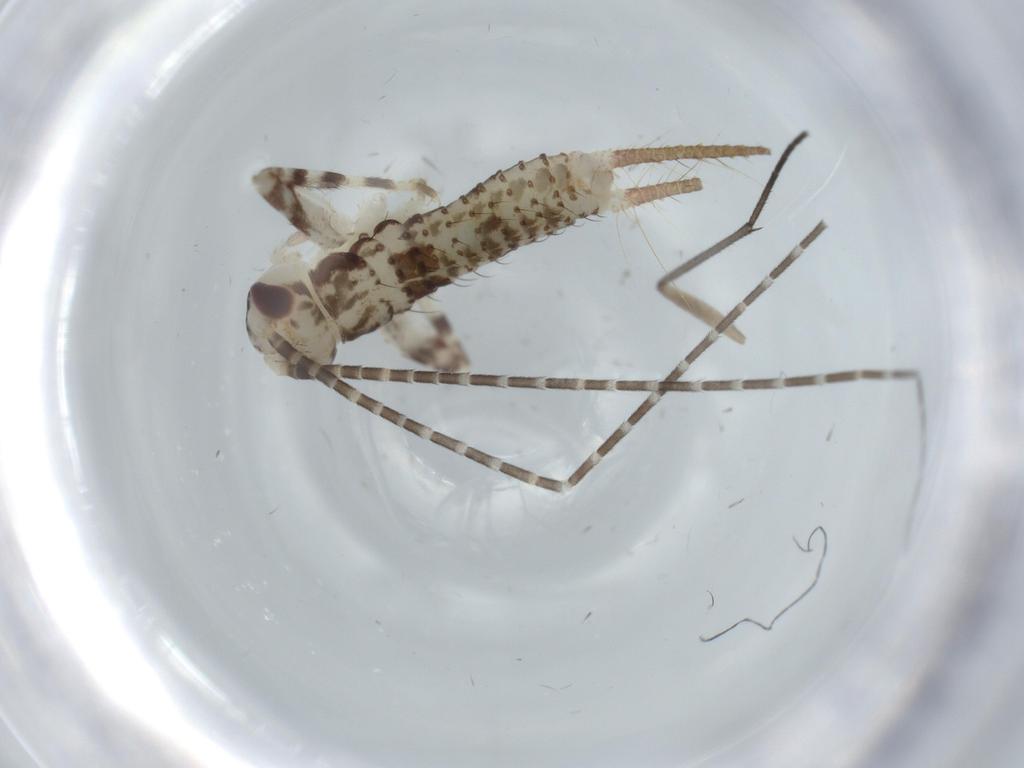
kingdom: Animalia
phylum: Arthropoda
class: Insecta
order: Orthoptera
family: Gryllidae
